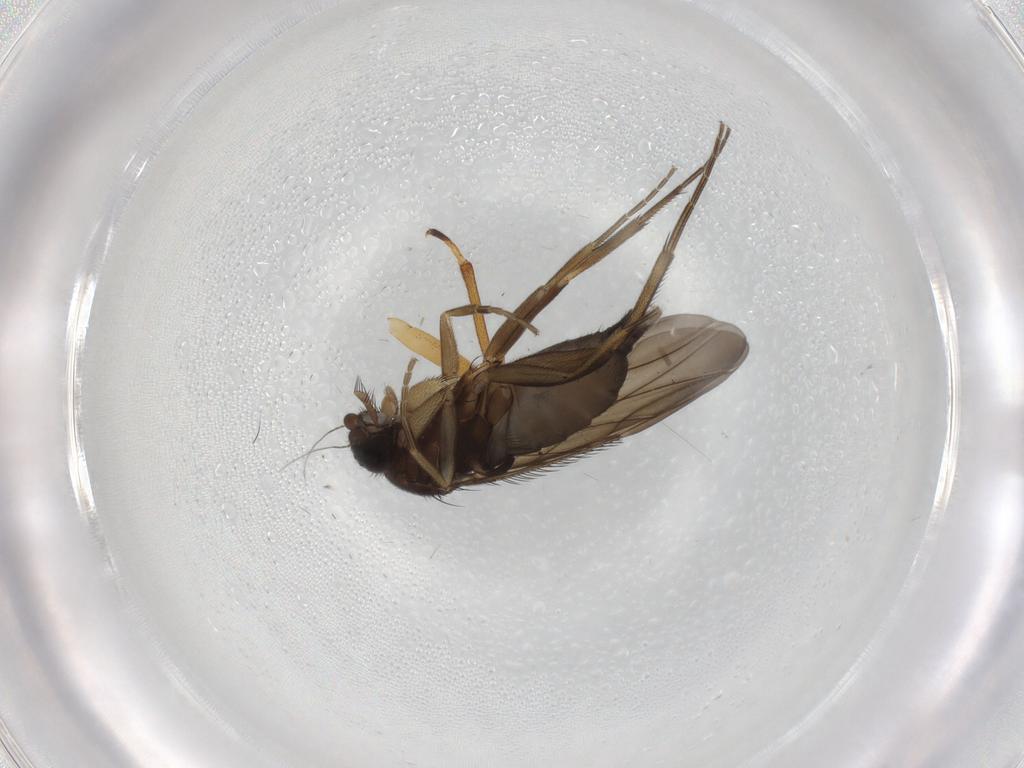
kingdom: Animalia
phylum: Arthropoda
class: Insecta
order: Diptera
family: Phoridae
